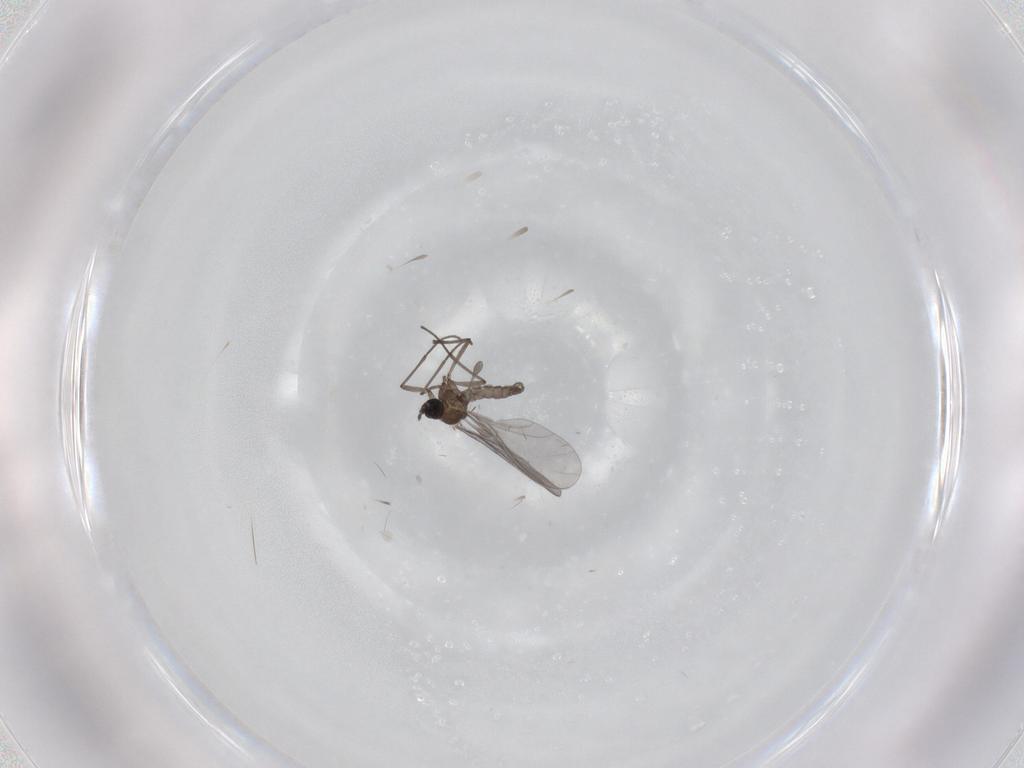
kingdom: Animalia
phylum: Arthropoda
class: Insecta
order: Diptera
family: Sciaridae
